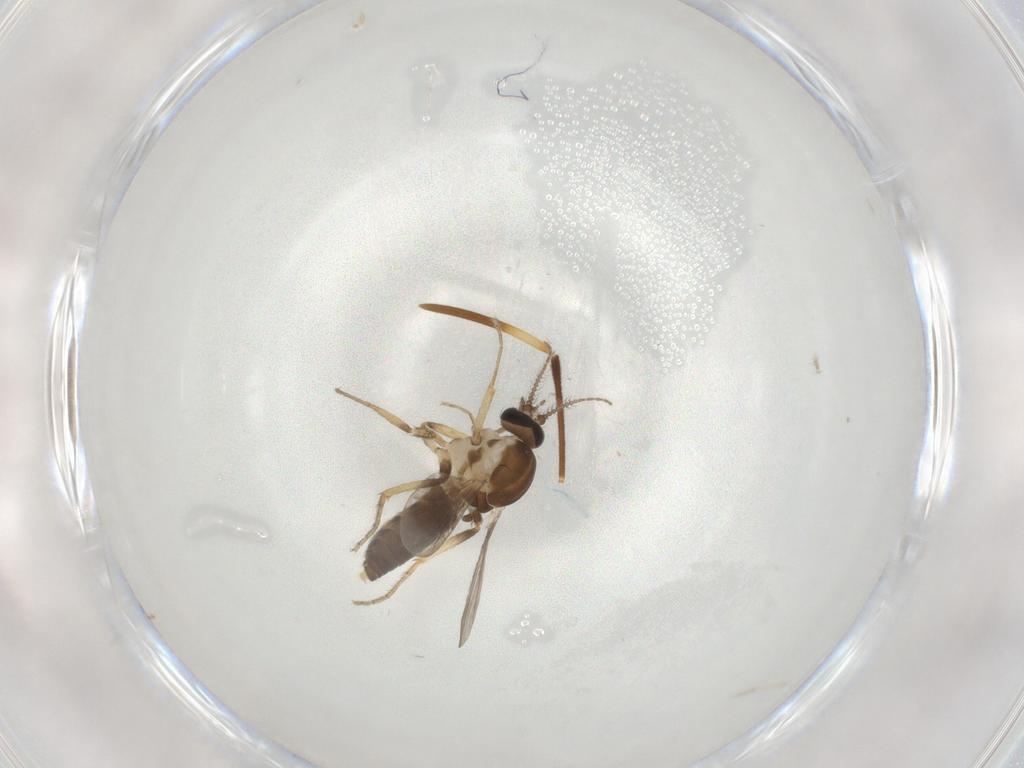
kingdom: Animalia
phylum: Arthropoda
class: Insecta
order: Diptera
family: Ceratopogonidae
